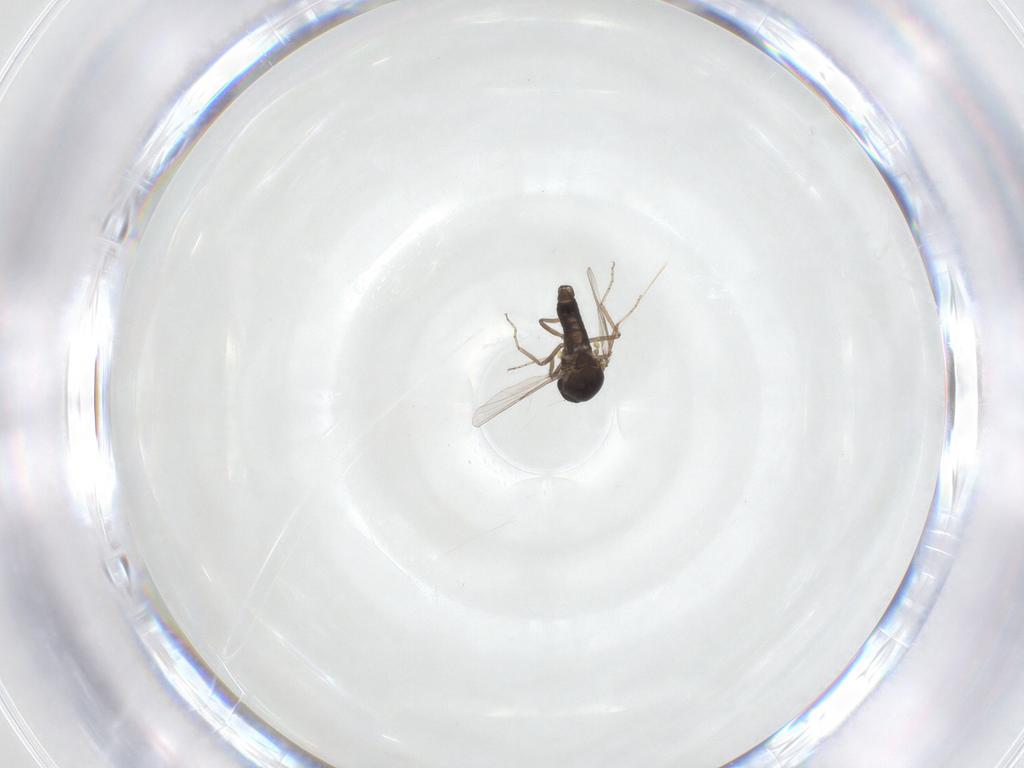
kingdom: Animalia
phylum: Arthropoda
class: Insecta
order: Diptera
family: Ceratopogonidae
